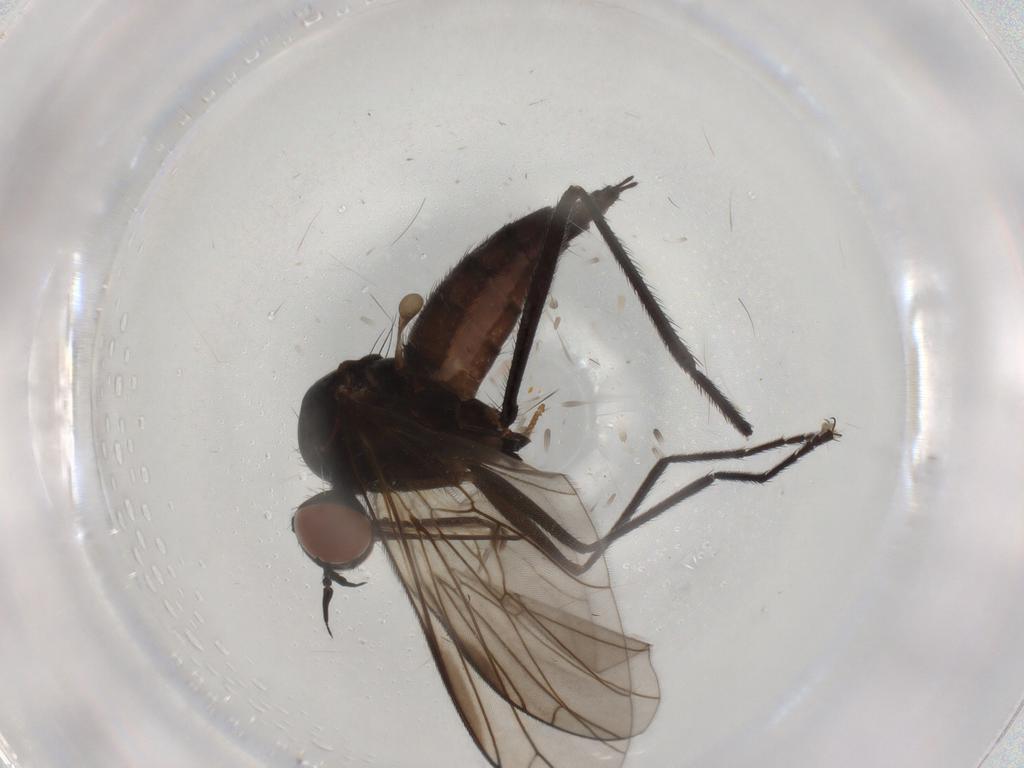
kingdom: Animalia
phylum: Arthropoda
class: Insecta
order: Diptera
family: Empididae
